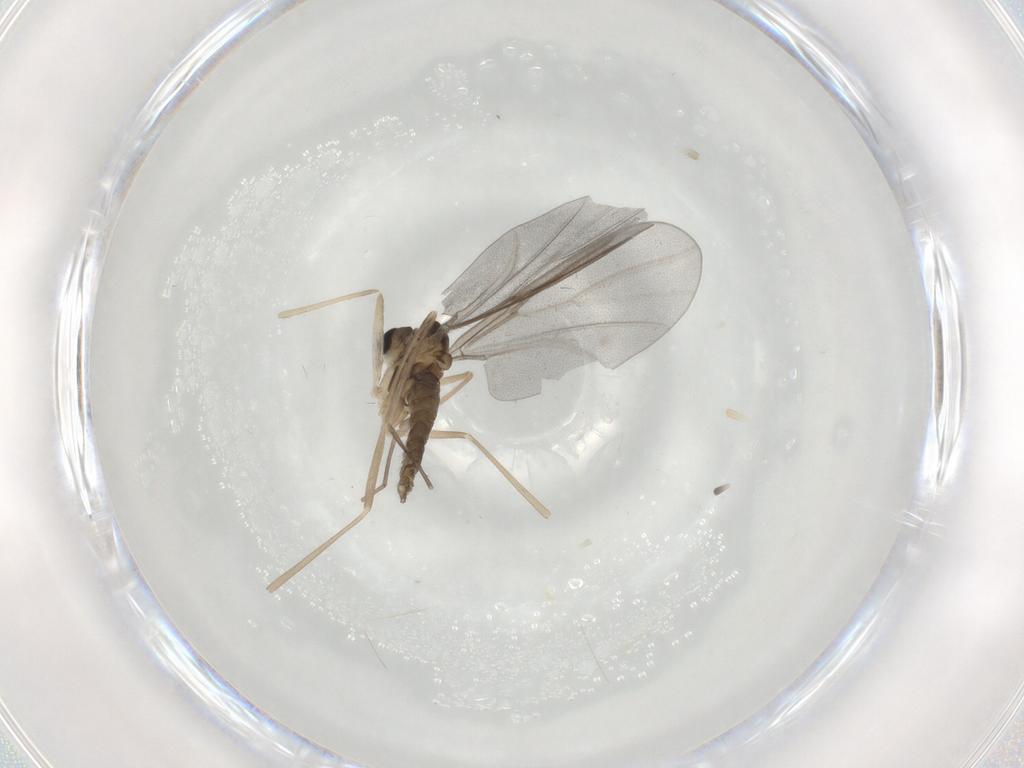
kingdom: Animalia
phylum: Arthropoda
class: Insecta
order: Diptera
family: Cecidomyiidae
